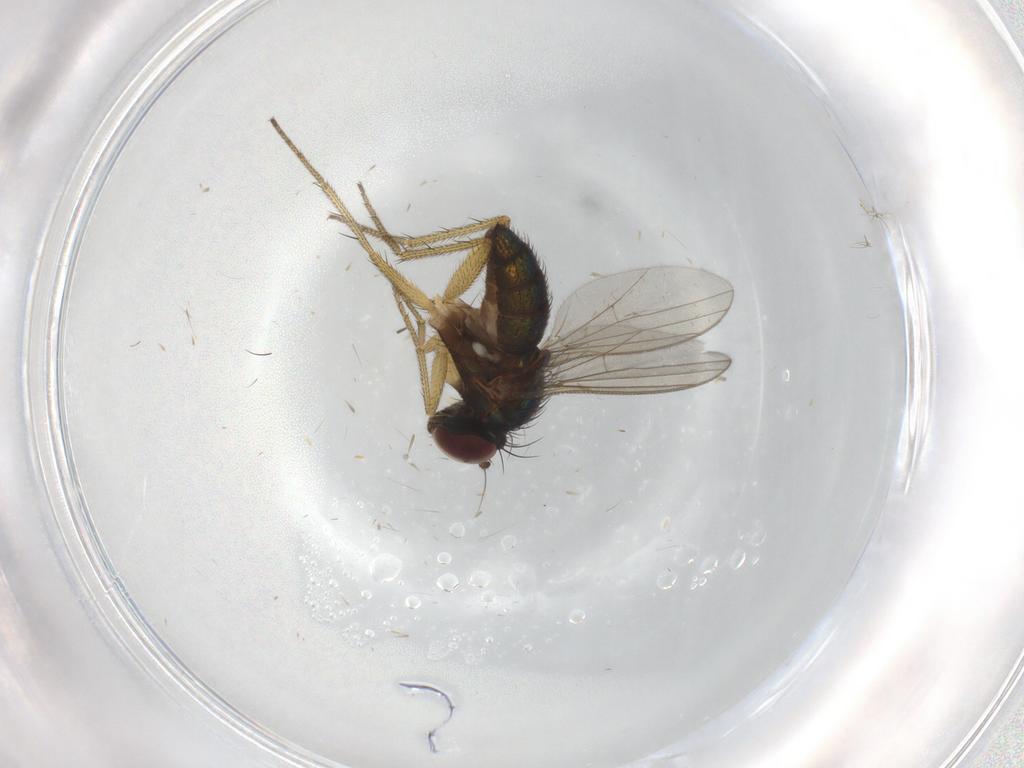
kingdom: Animalia
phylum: Arthropoda
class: Insecta
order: Diptera
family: Dolichopodidae
